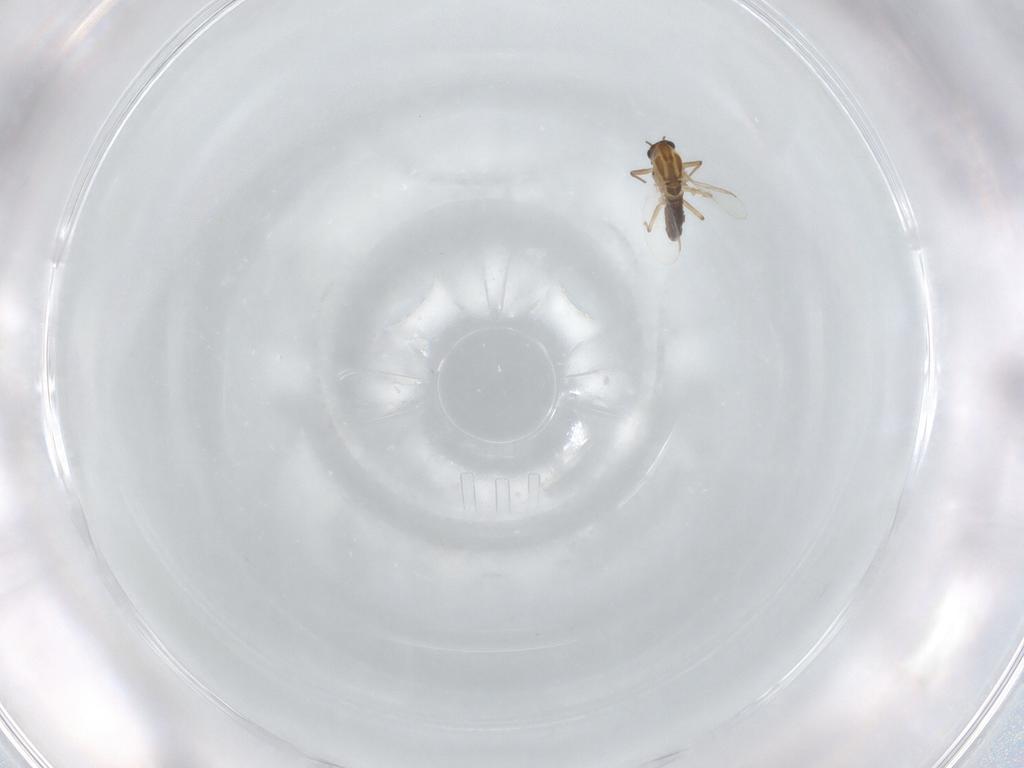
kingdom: Animalia
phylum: Arthropoda
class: Insecta
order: Diptera
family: Chironomidae
